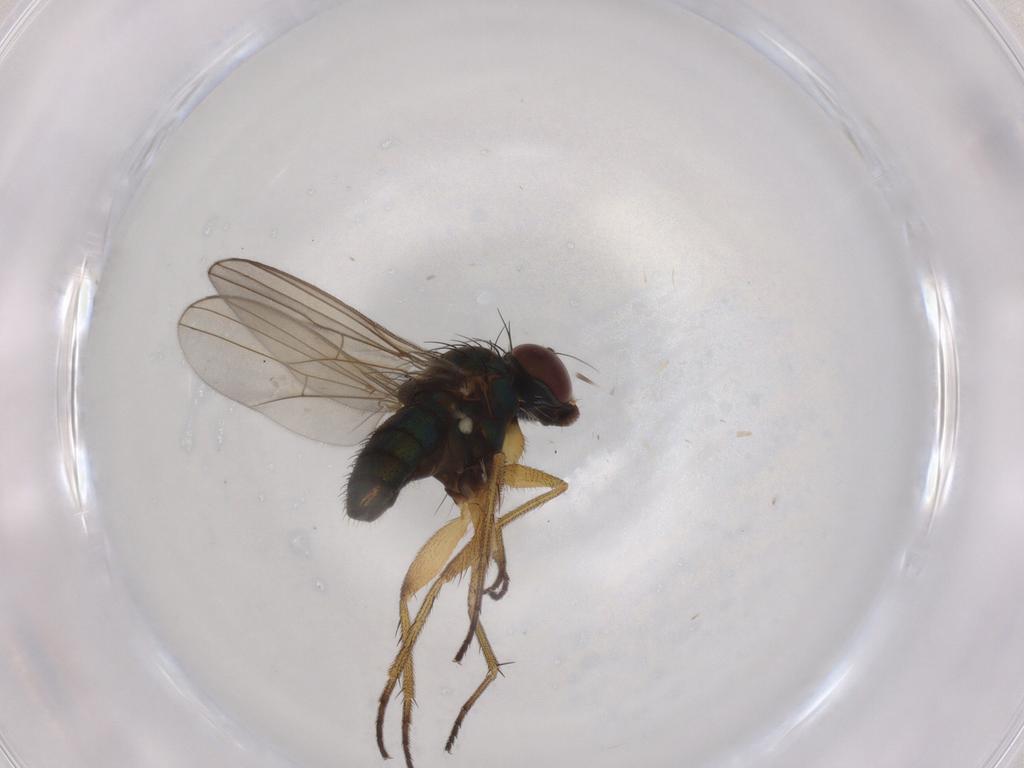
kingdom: Animalia
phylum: Arthropoda
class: Insecta
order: Diptera
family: Dolichopodidae
